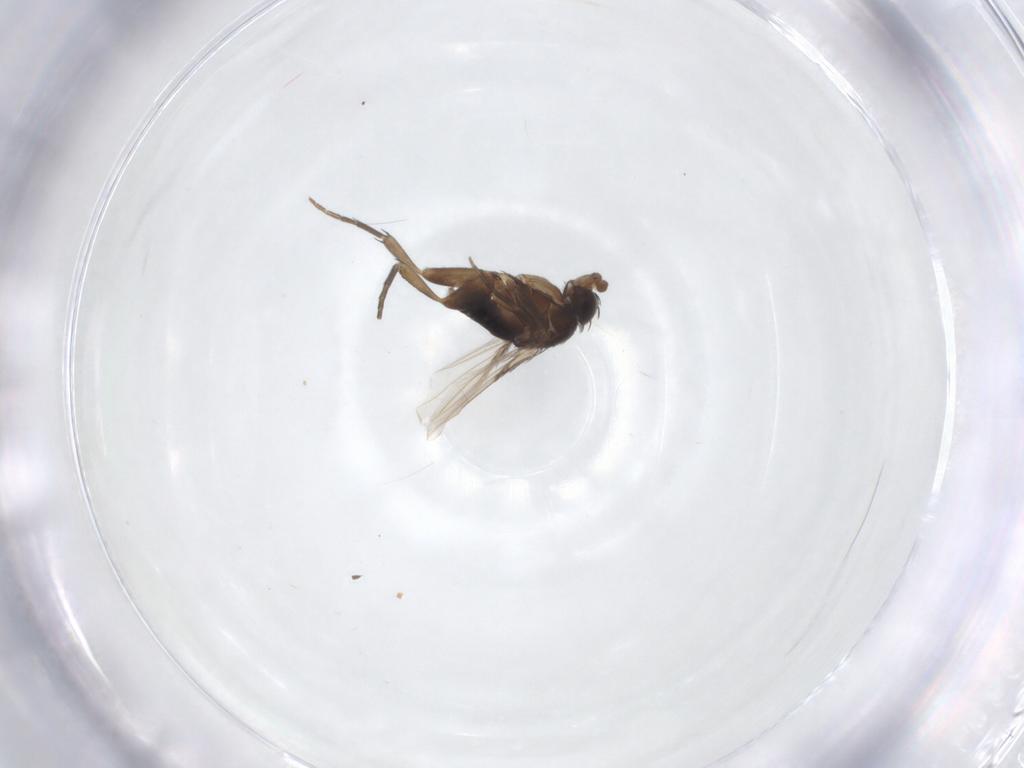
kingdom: Animalia
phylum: Arthropoda
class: Insecta
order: Diptera
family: Phoridae
